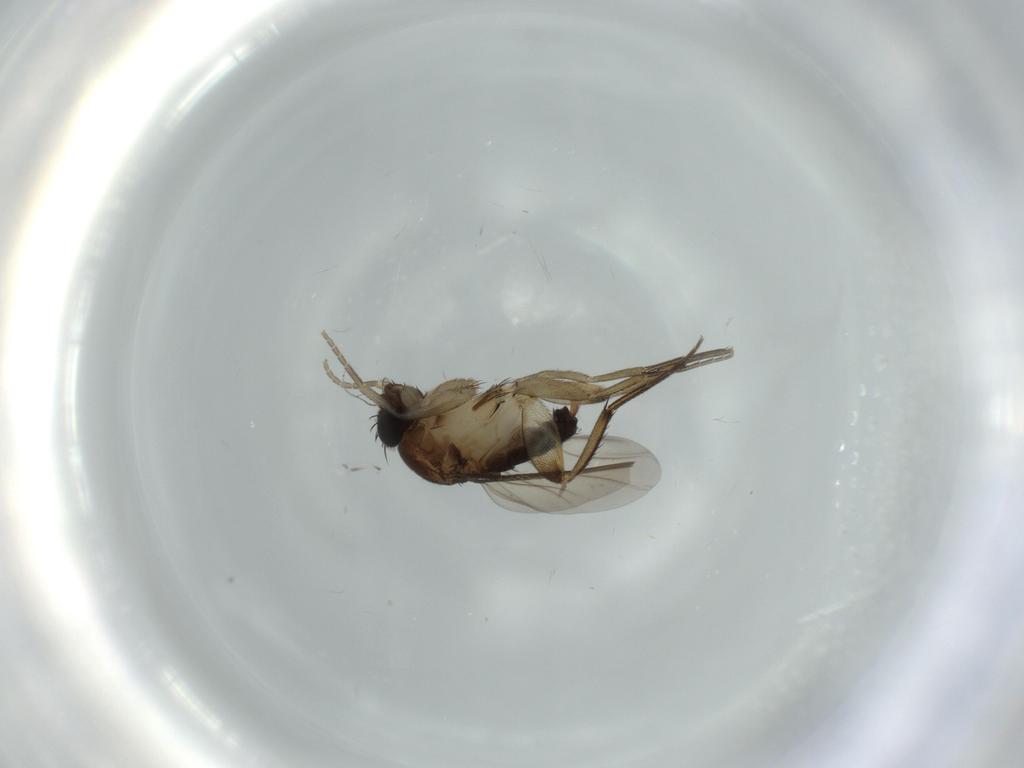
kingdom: Animalia
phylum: Arthropoda
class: Insecta
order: Diptera
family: Phoridae
